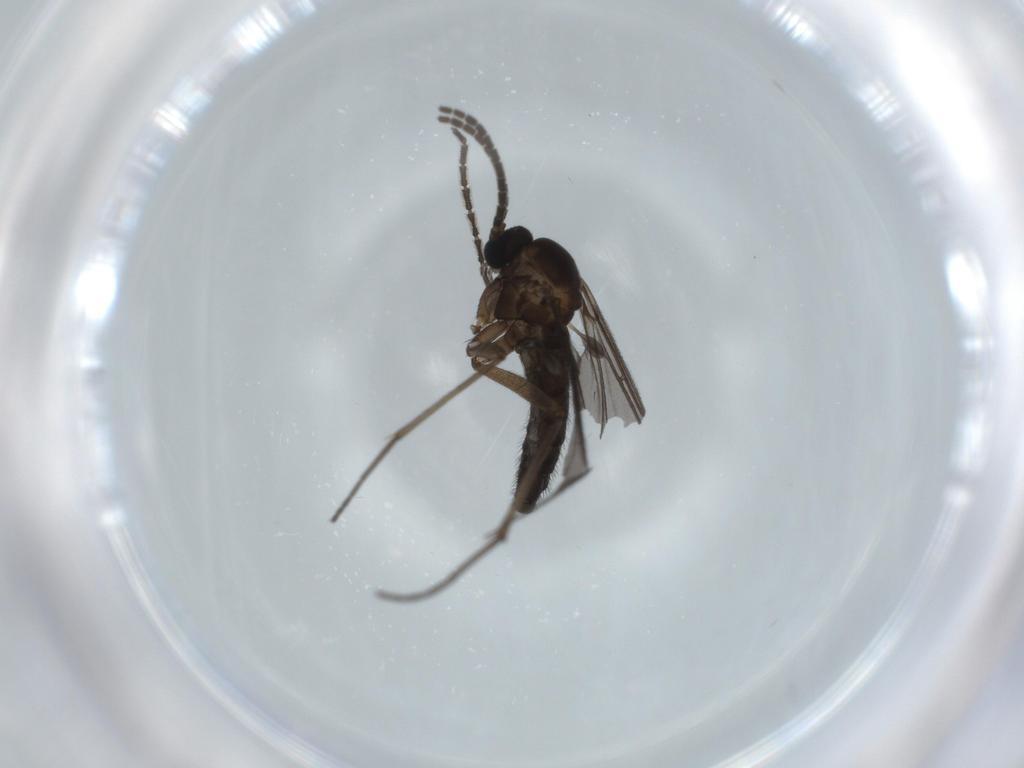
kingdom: Animalia
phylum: Arthropoda
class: Insecta
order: Diptera
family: Phoridae
